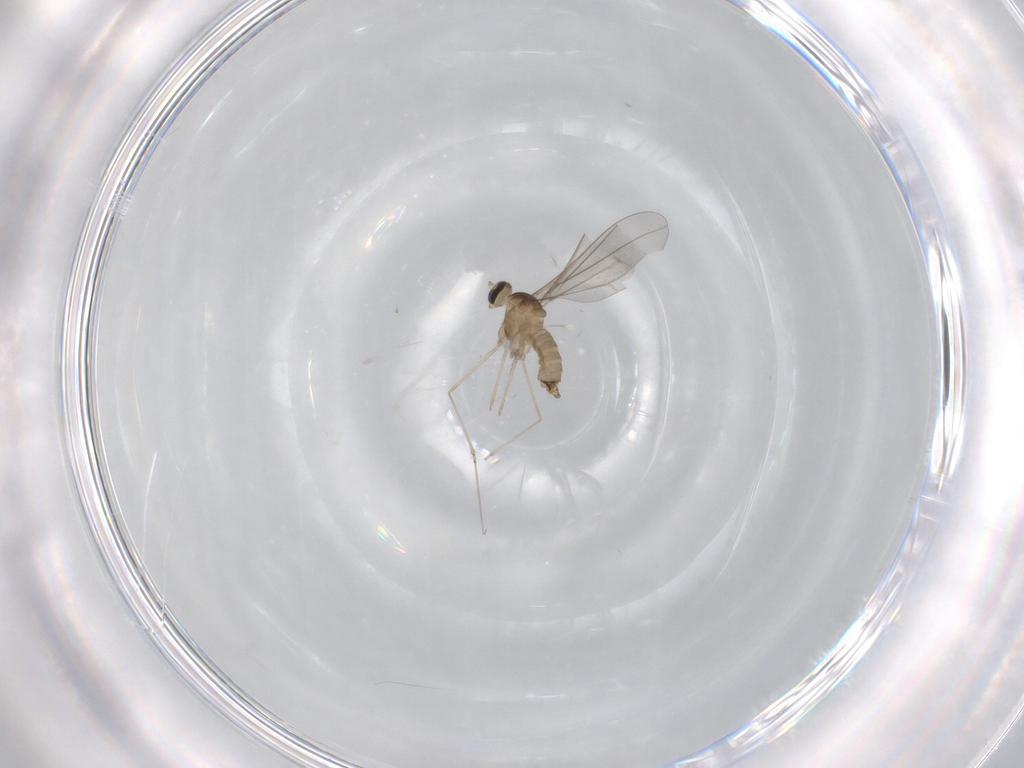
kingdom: Animalia
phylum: Arthropoda
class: Insecta
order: Diptera
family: Cecidomyiidae
